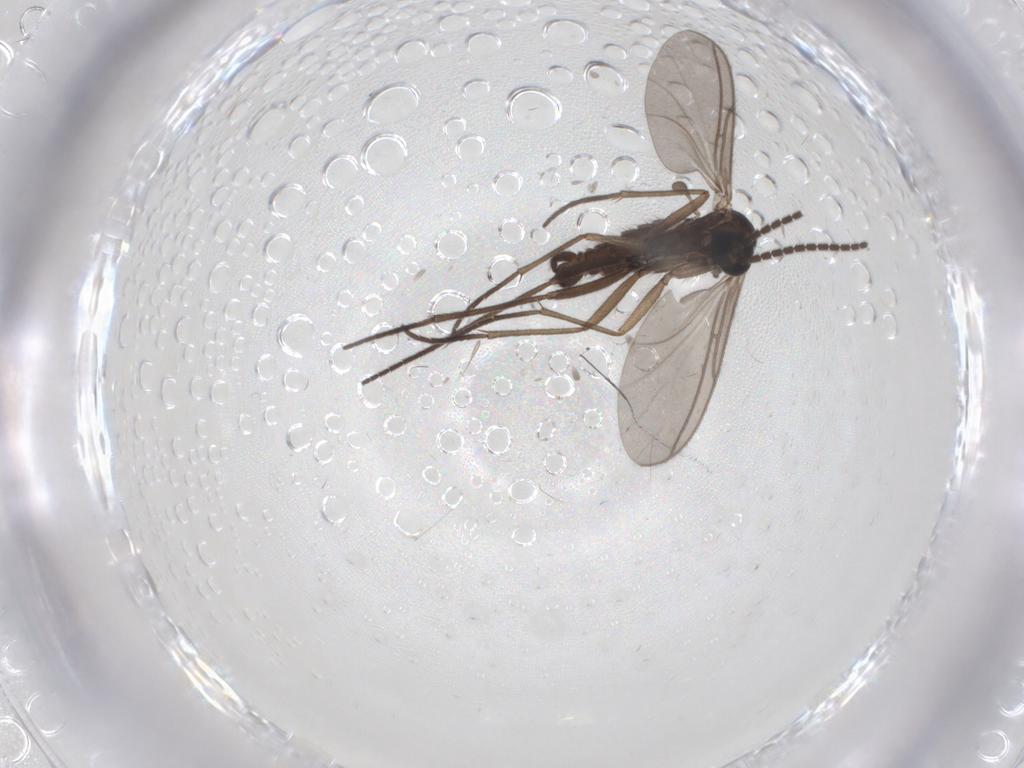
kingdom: Animalia
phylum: Arthropoda
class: Insecta
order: Diptera
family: Sciaridae
